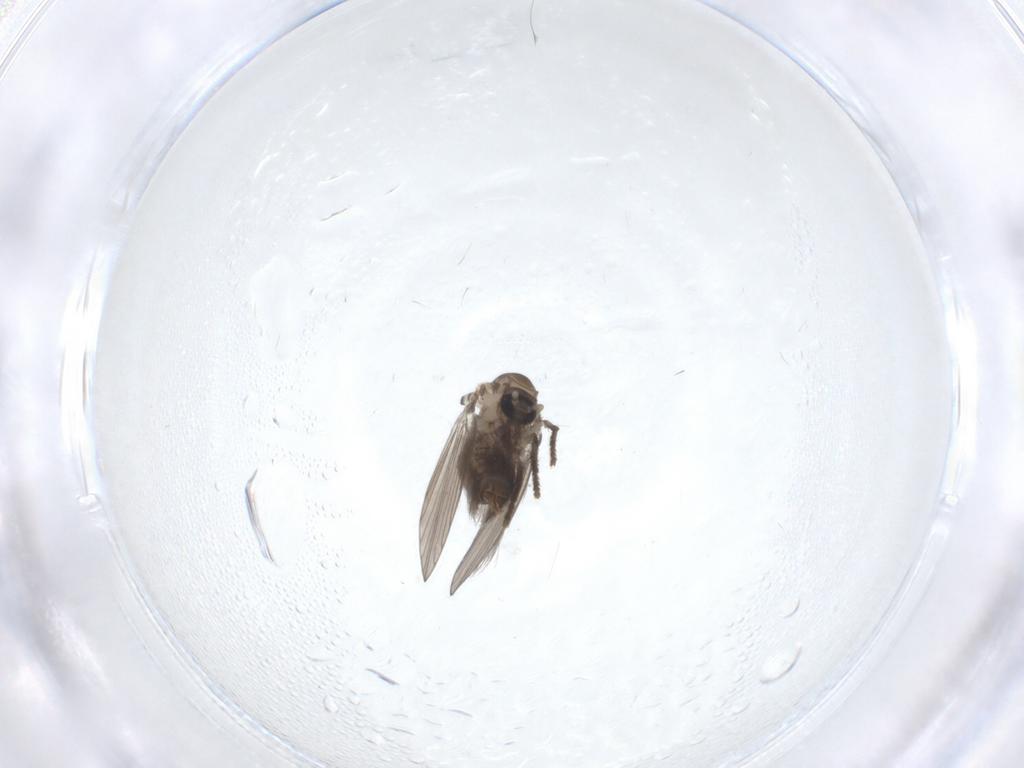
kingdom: Animalia
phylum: Arthropoda
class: Insecta
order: Diptera
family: Psychodidae
